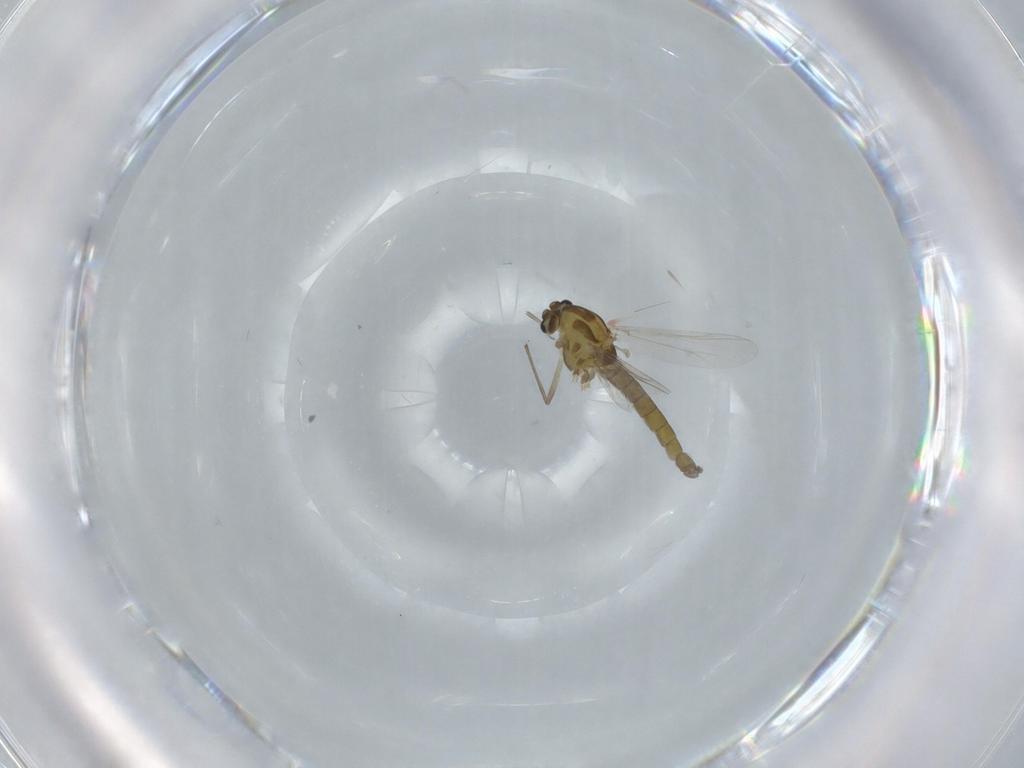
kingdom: Animalia
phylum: Arthropoda
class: Insecta
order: Diptera
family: Chironomidae
